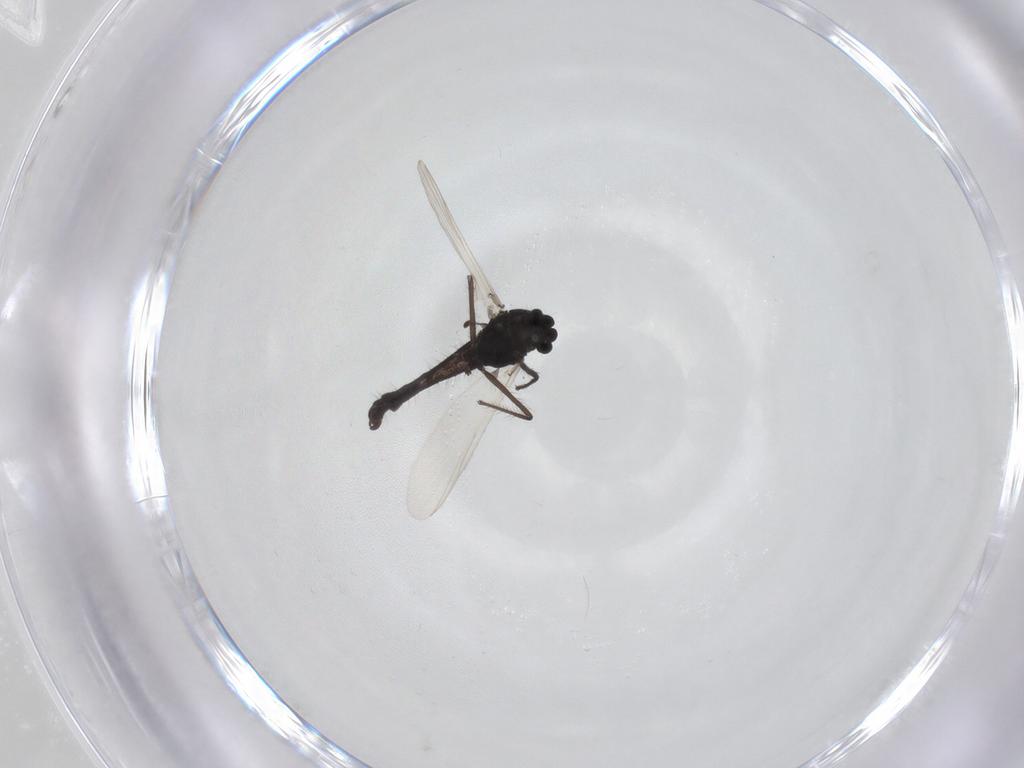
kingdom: Animalia
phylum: Arthropoda
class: Insecta
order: Diptera
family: Chironomidae
